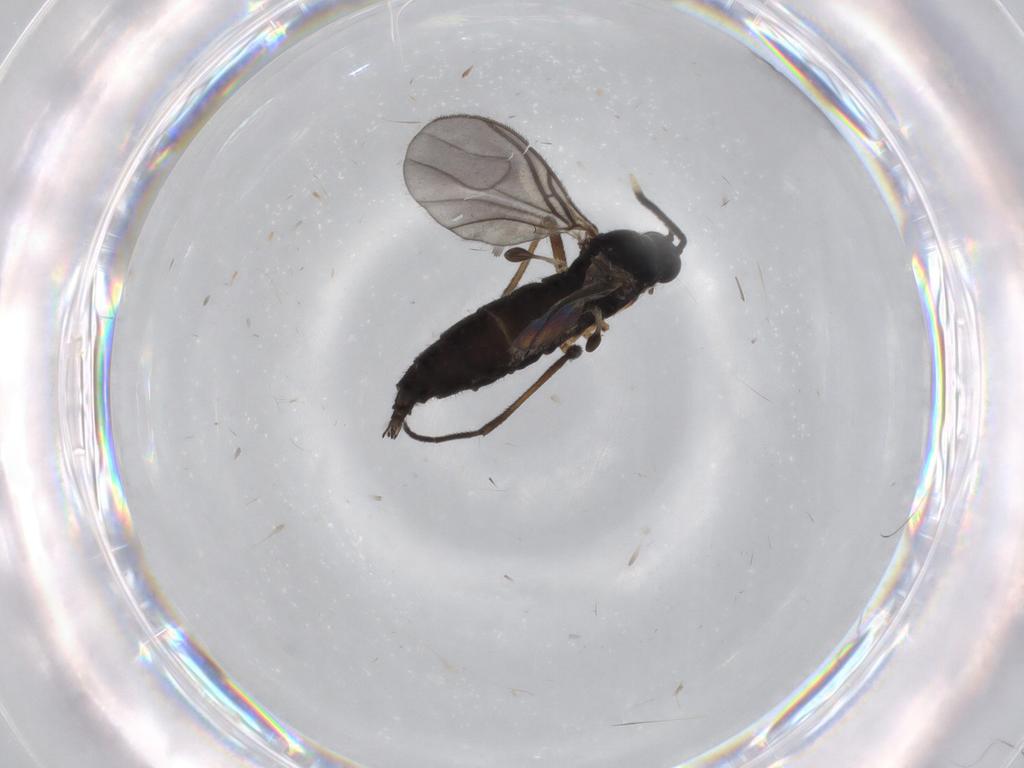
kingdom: Animalia
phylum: Arthropoda
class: Insecta
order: Diptera
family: Sciaridae
